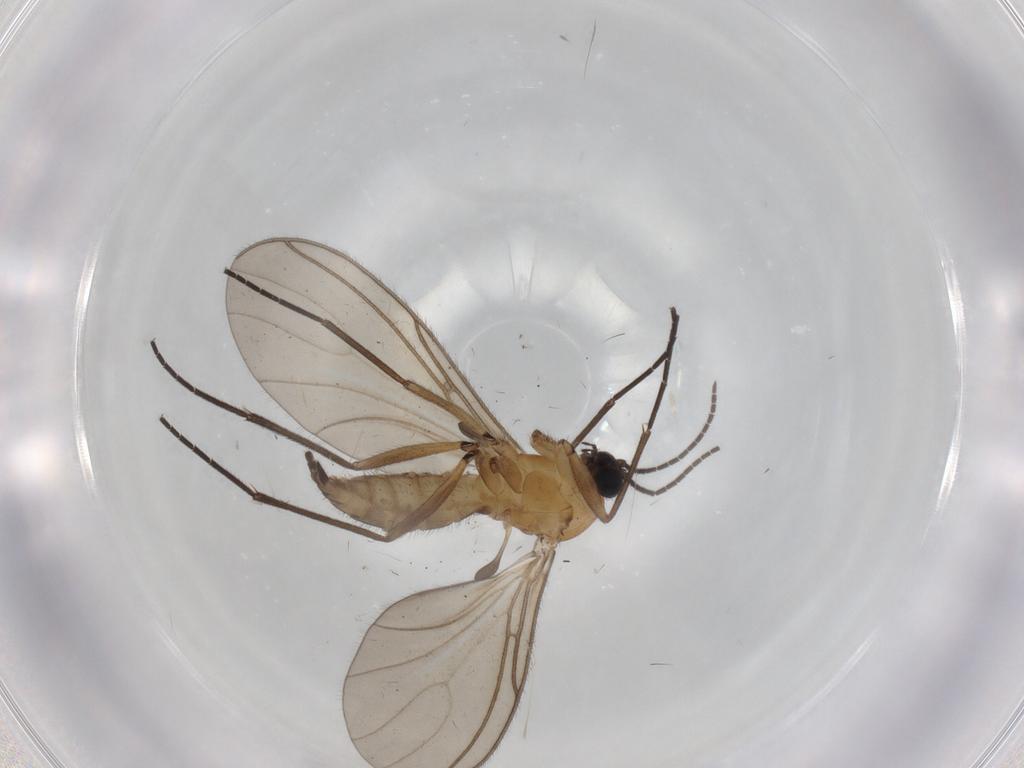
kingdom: Animalia
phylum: Arthropoda
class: Insecta
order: Diptera
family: Sciaridae
